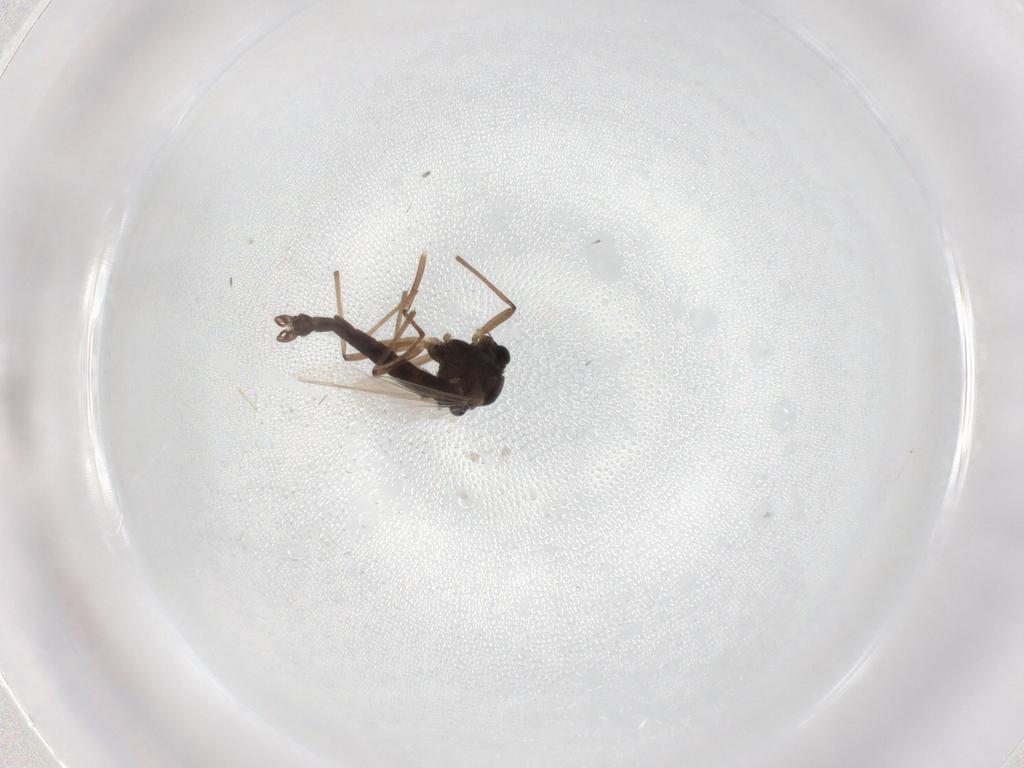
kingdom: Animalia
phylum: Arthropoda
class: Insecta
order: Diptera
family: Chironomidae
